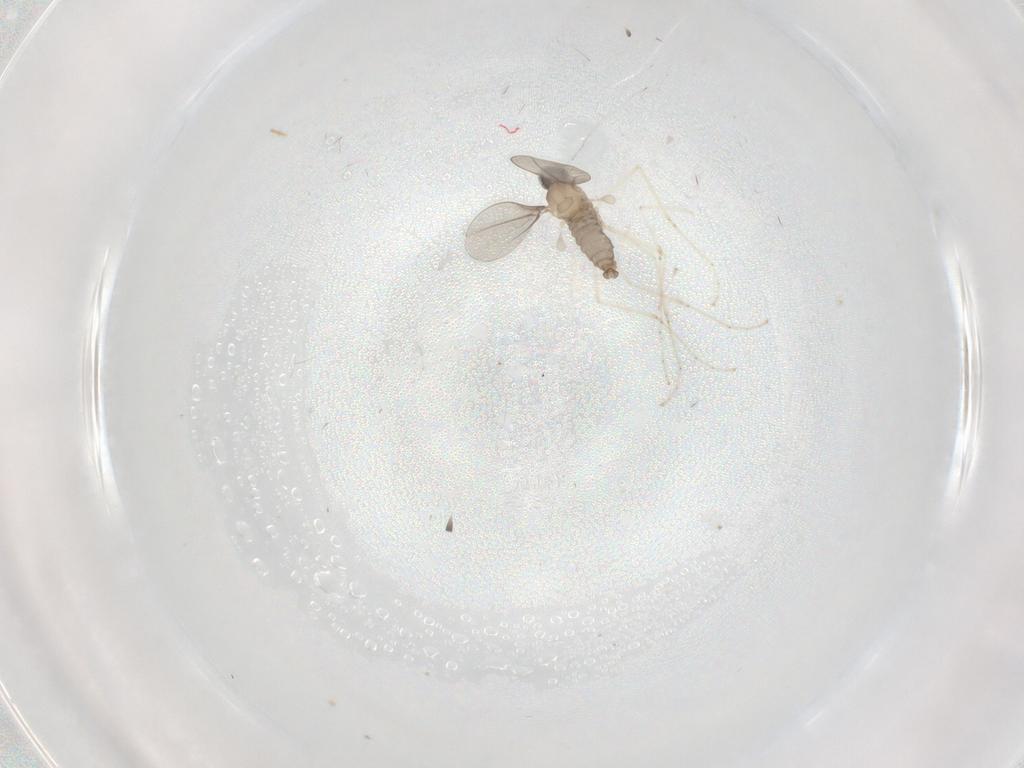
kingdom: Animalia
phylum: Arthropoda
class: Insecta
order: Diptera
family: Cecidomyiidae
